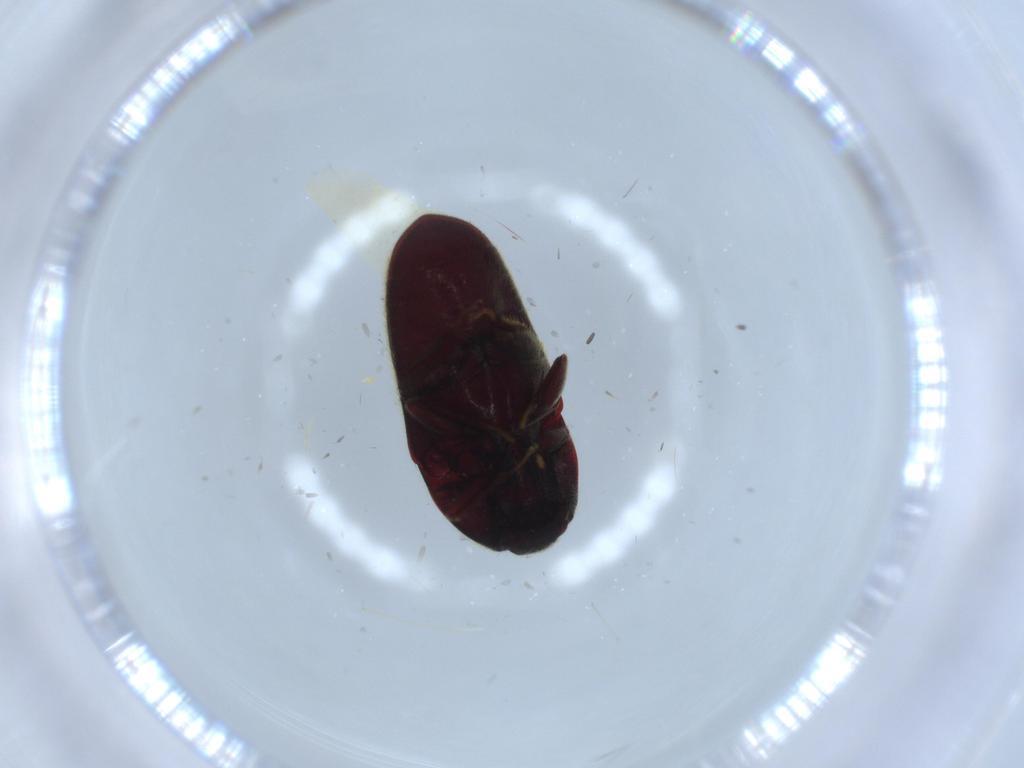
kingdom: Animalia
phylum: Arthropoda
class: Insecta
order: Coleoptera
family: Throscidae
